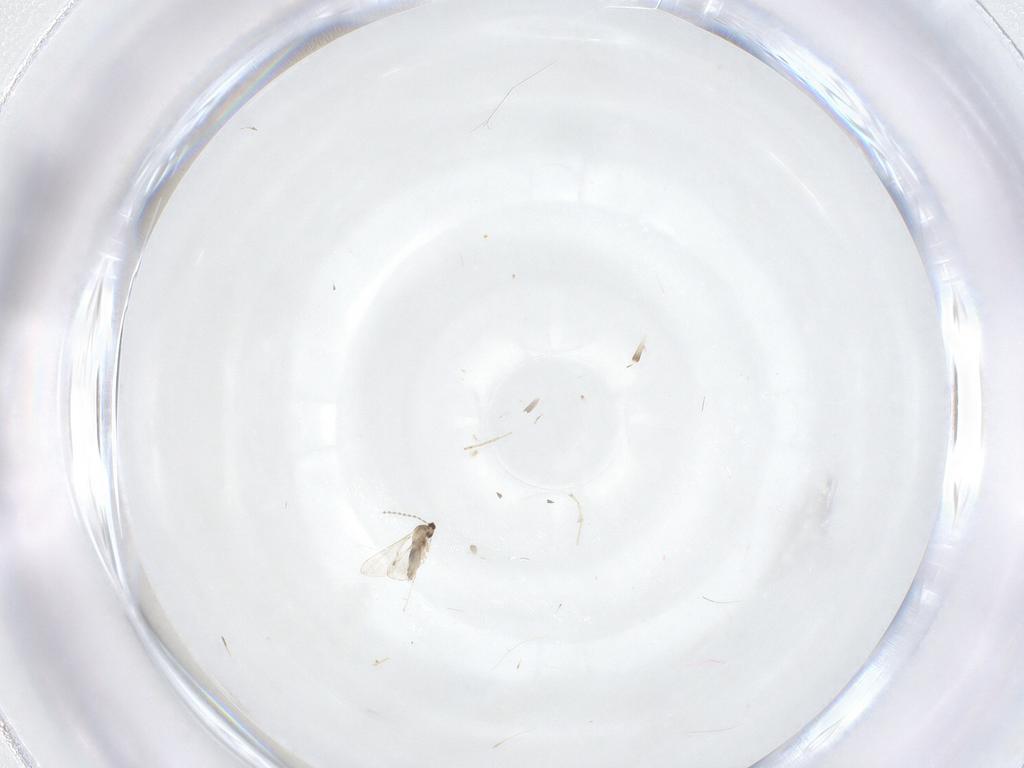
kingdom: Animalia
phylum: Arthropoda
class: Insecta
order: Diptera
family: Cecidomyiidae
